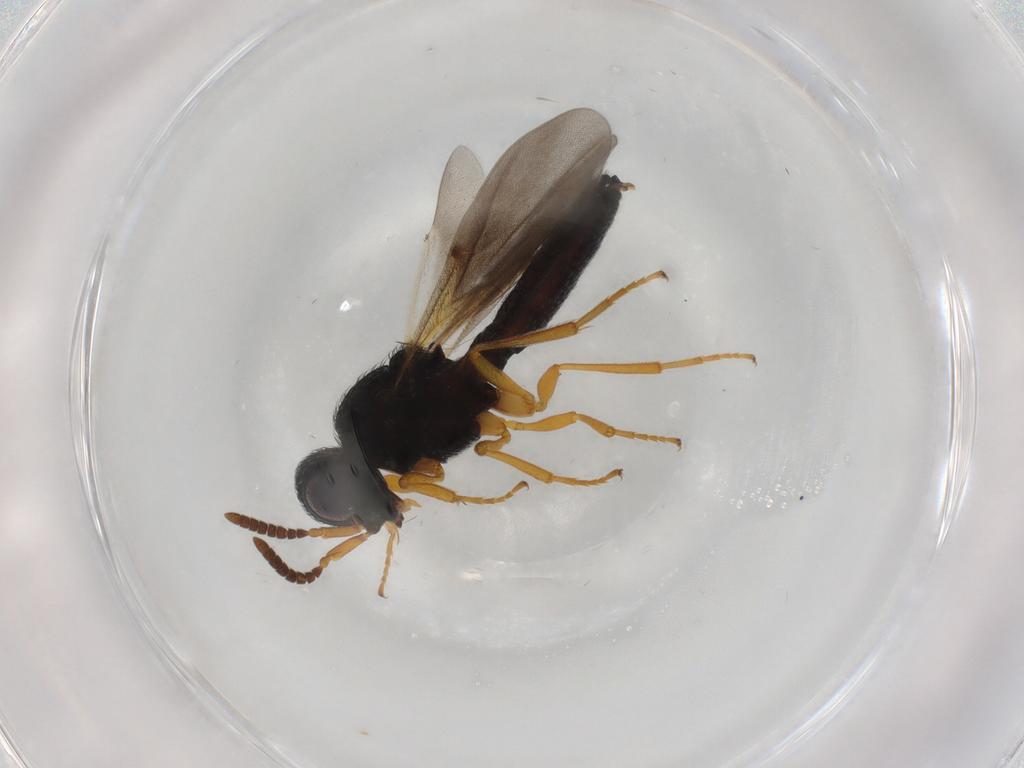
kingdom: Animalia
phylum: Arthropoda
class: Insecta
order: Hymenoptera
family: Scelionidae
